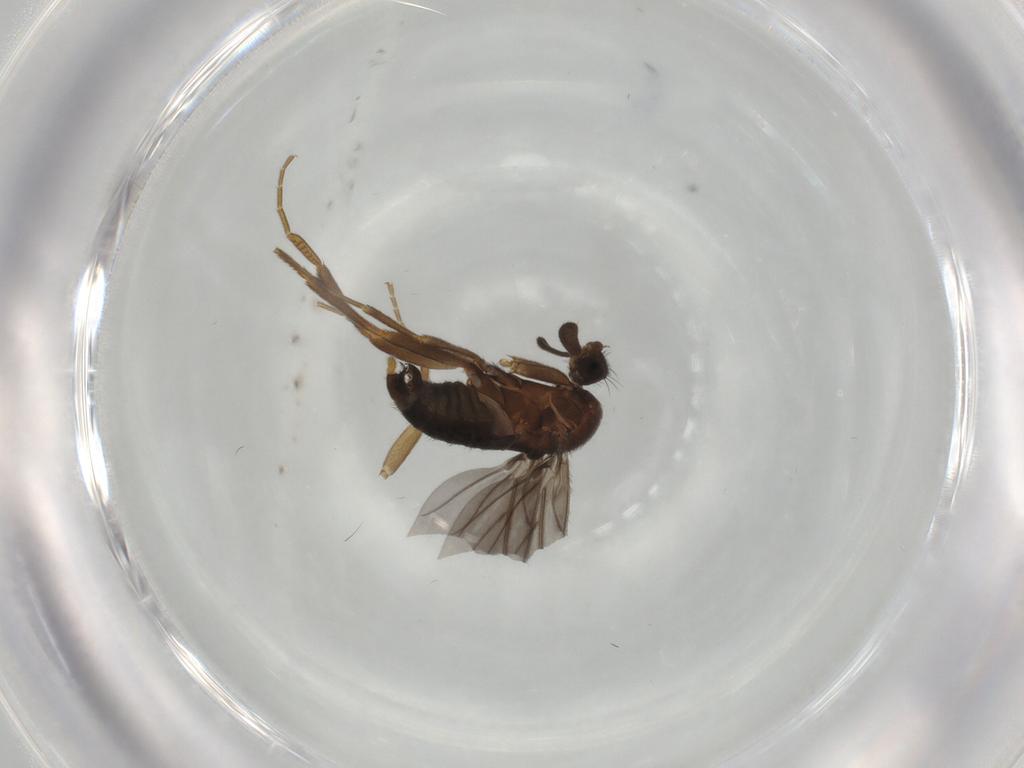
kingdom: Animalia
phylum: Arthropoda
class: Insecta
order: Diptera
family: Phoridae
